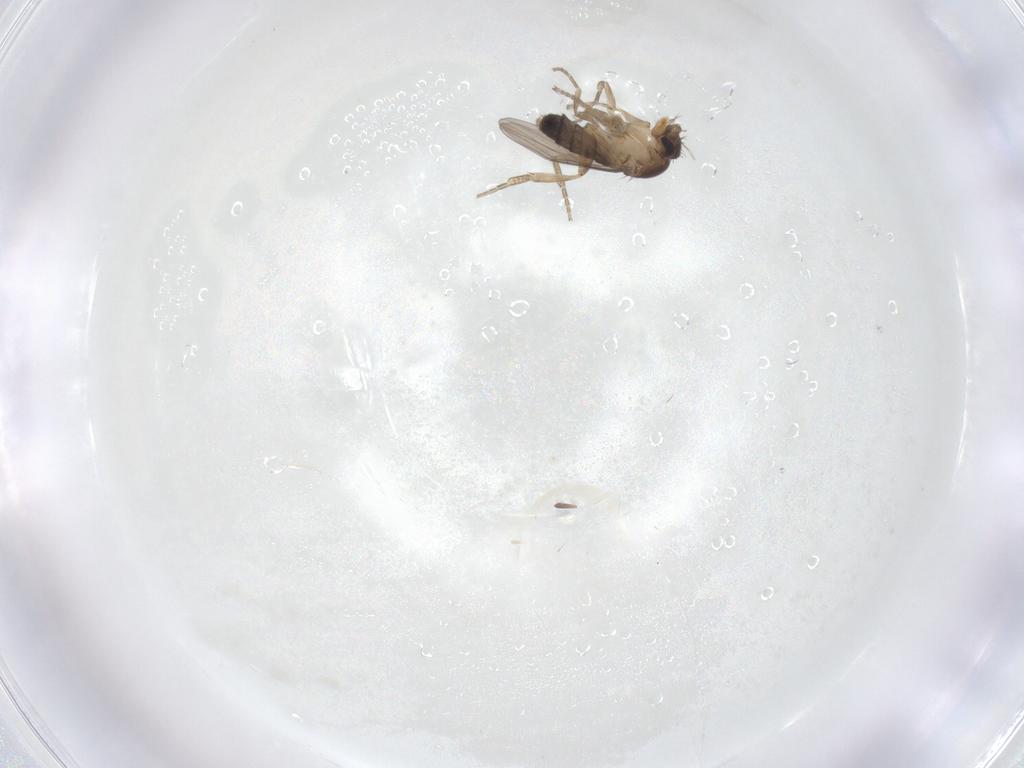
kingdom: Animalia
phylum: Arthropoda
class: Insecta
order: Diptera
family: Phoridae
